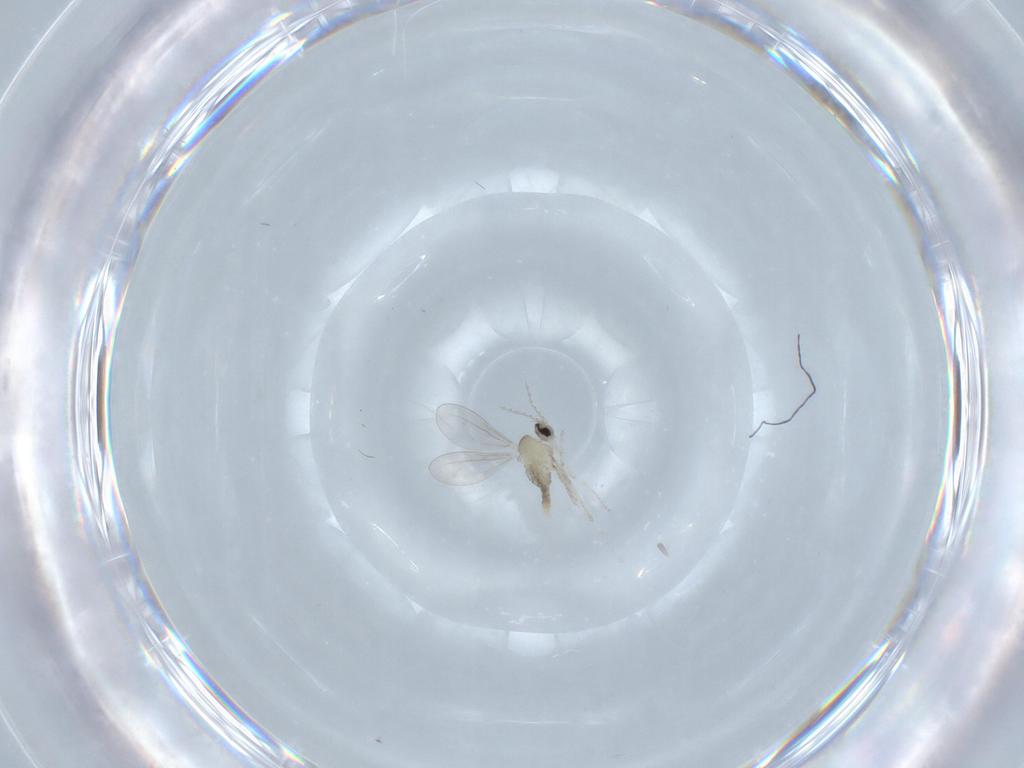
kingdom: Animalia
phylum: Arthropoda
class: Insecta
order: Diptera
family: Cecidomyiidae
